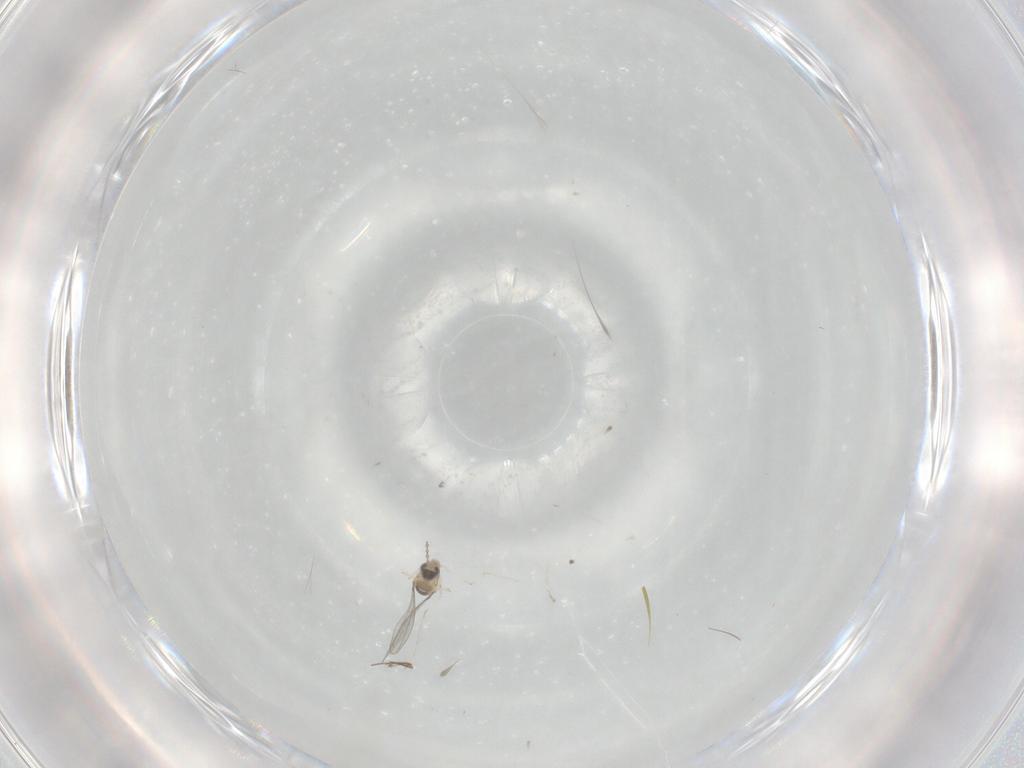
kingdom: Animalia
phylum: Arthropoda
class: Insecta
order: Diptera
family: Cecidomyiidae
